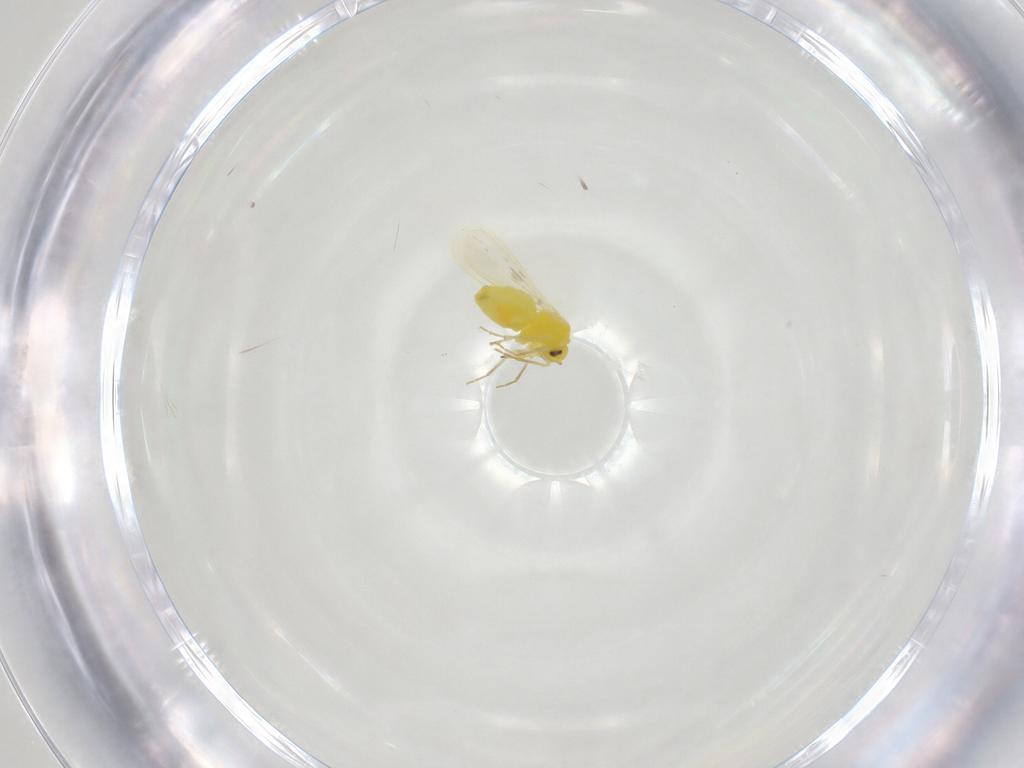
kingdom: Animalia
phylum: Arthropoda
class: Insecta
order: Hemiptera
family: Aleyrodidae
